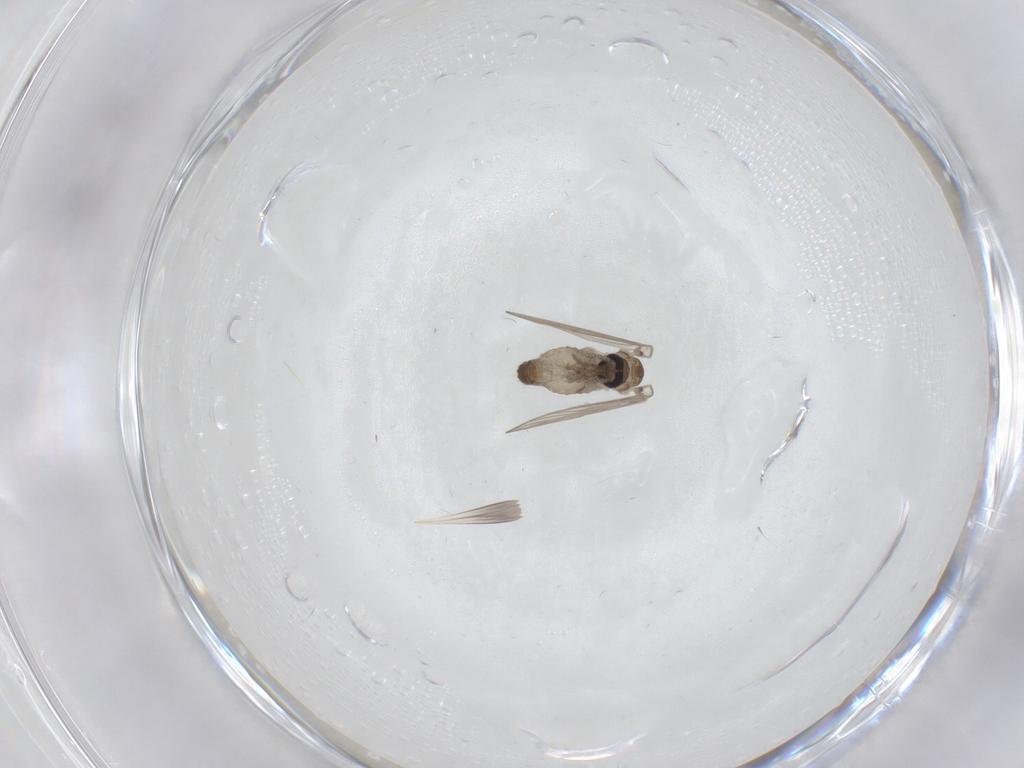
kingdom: Animalia
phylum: Arthropoda
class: Insecta
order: Diptera
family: Psychodidae
